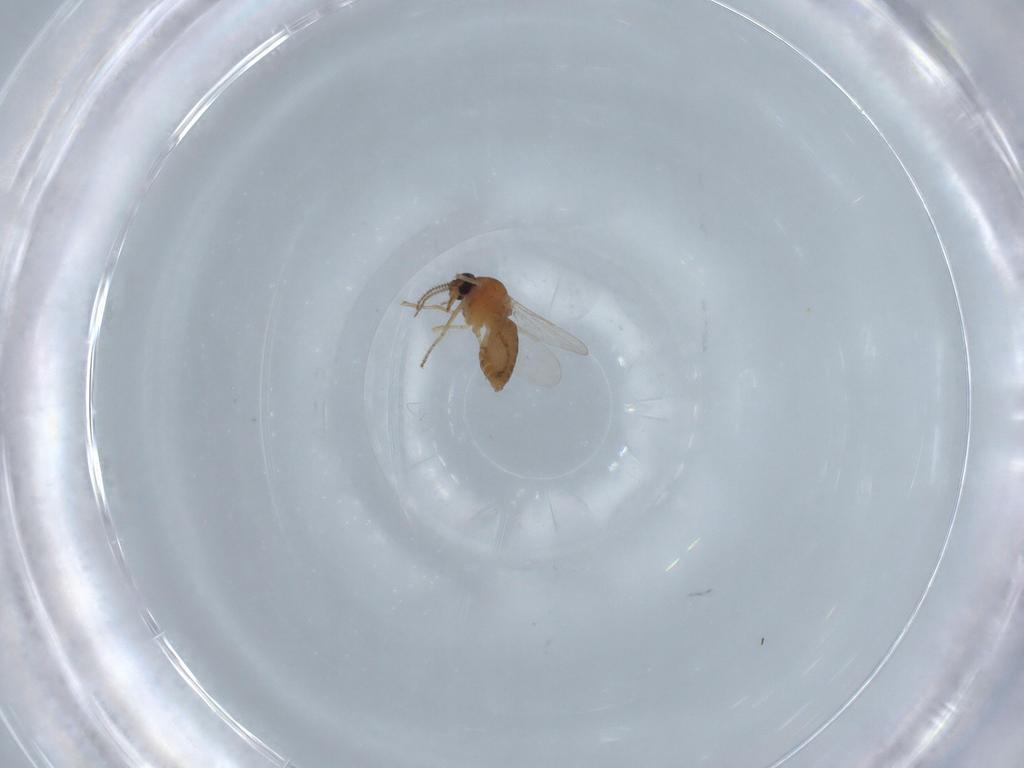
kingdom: Animalia
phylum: Arthropoda
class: Insecta
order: Diptera
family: Ceratopogonidae
